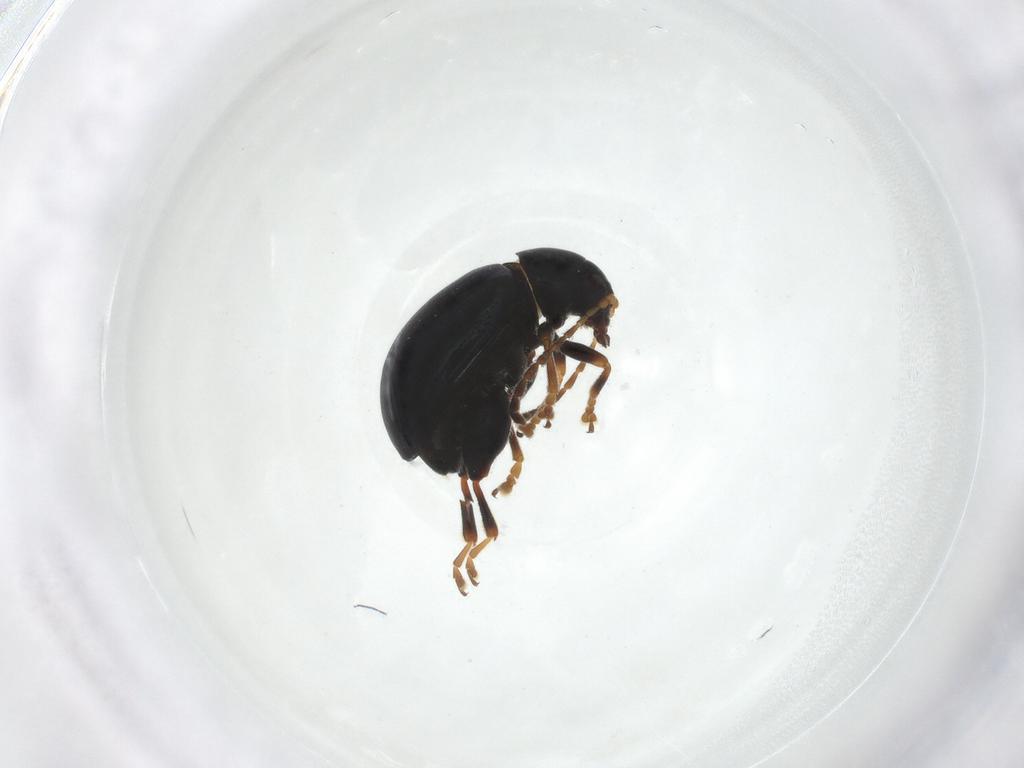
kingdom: Animalia
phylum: Arthropoda
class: Insecta
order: Coleoptera
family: Chrysomelidae
